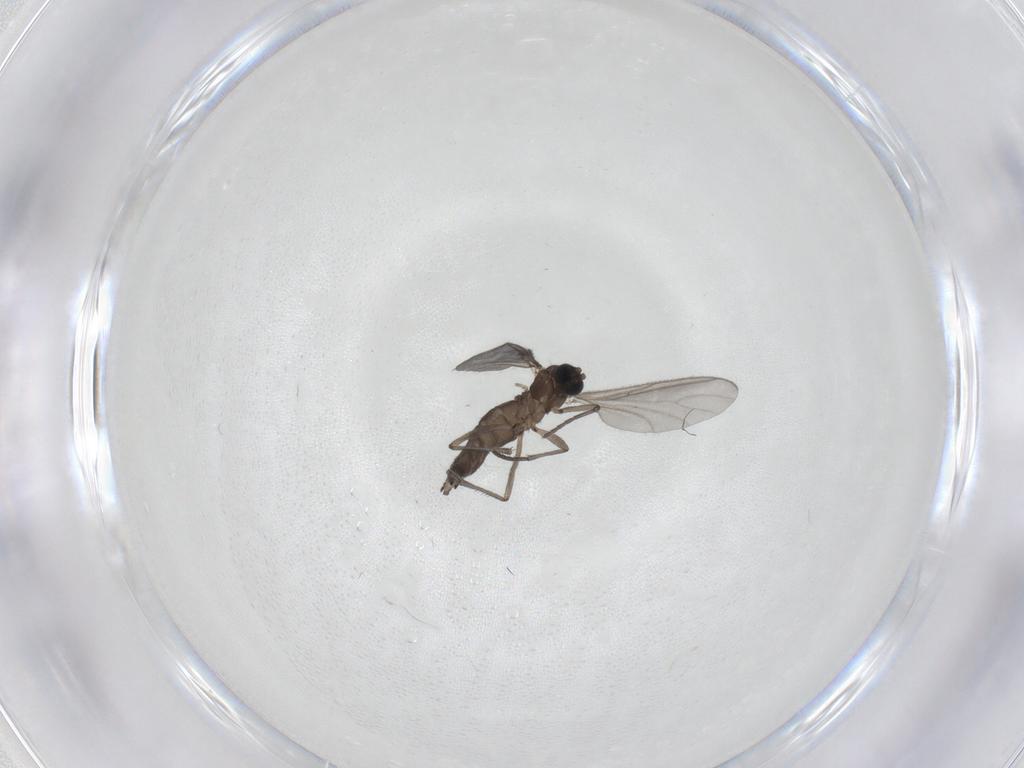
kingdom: Animalia
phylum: Arthropoda
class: Insecta
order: Diptera
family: Sciaridae
